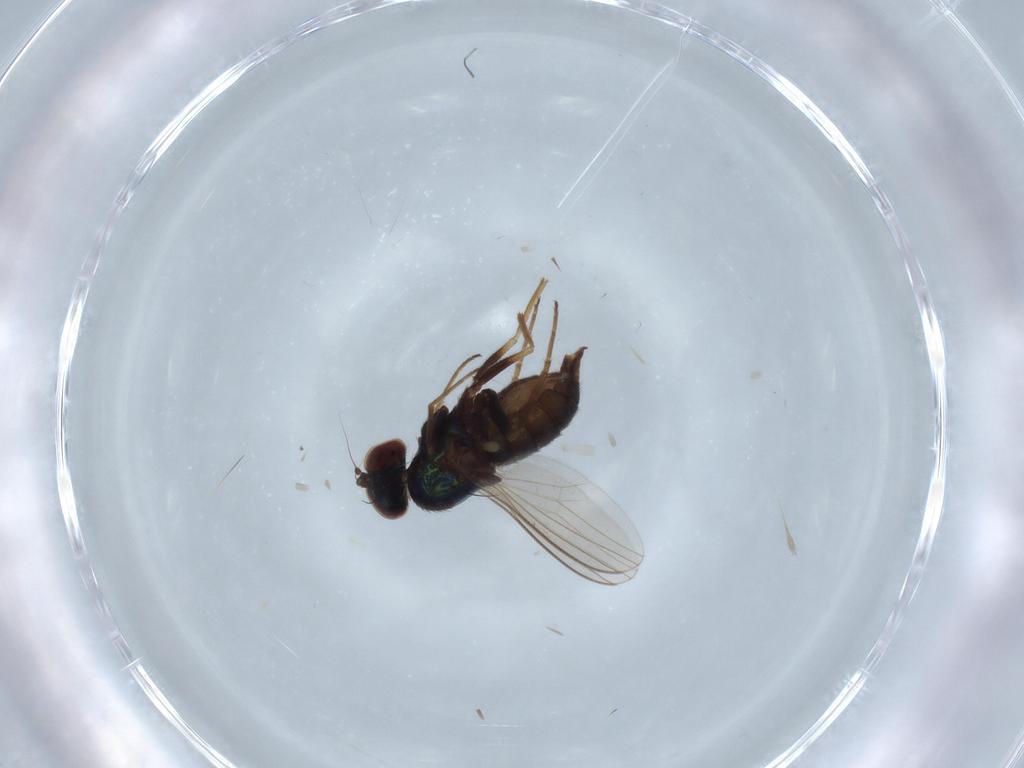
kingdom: Animalia
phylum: Arthropoda
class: Insecta
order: Diptera
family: Dolichopodidae
